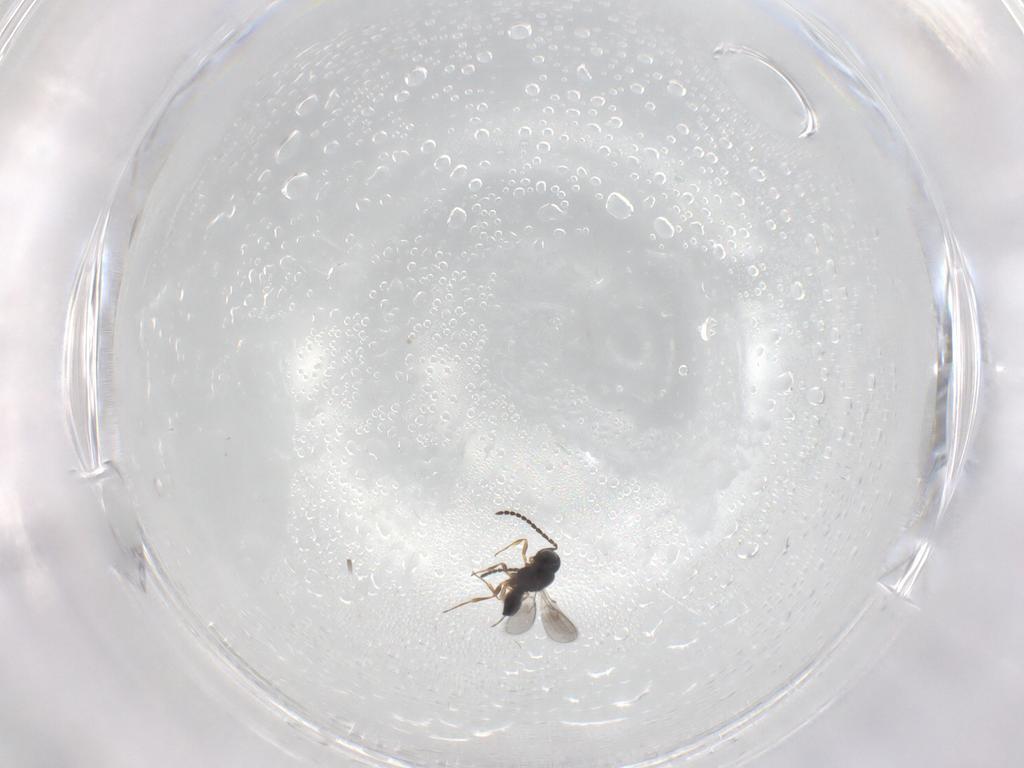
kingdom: Animalia
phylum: Arthropoda
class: Insecta
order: Hymenoptera
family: Scelionidae
